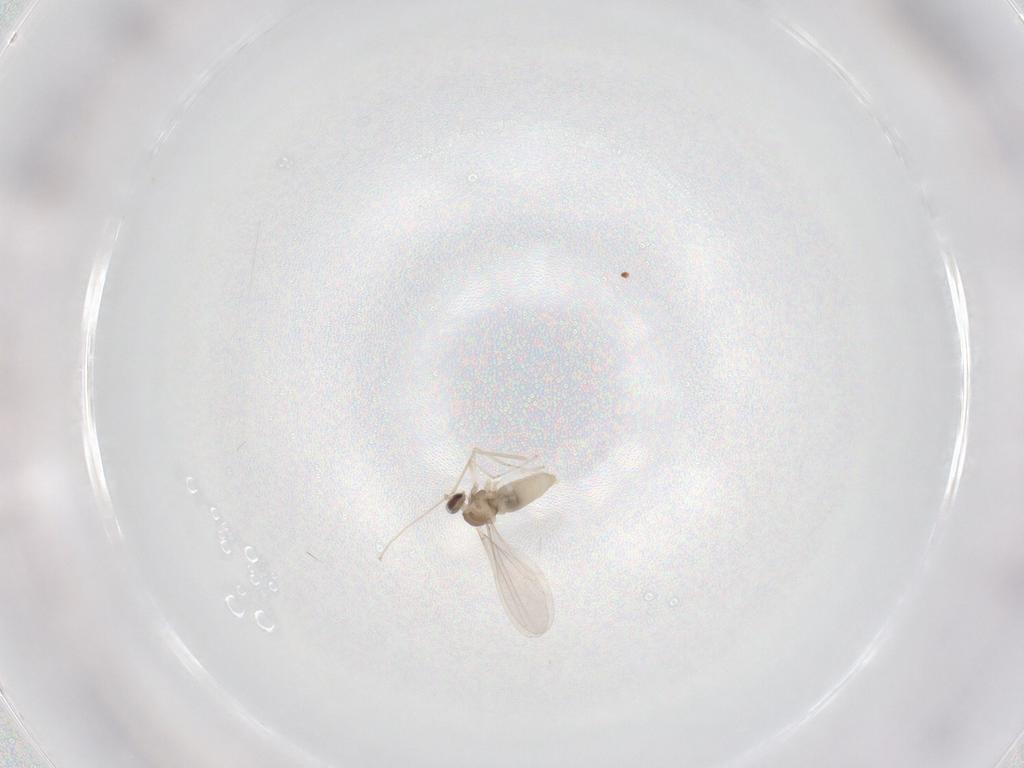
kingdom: Animalia
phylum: Arthropoda
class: Insecta
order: Diptera
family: Cecidomyiidae
